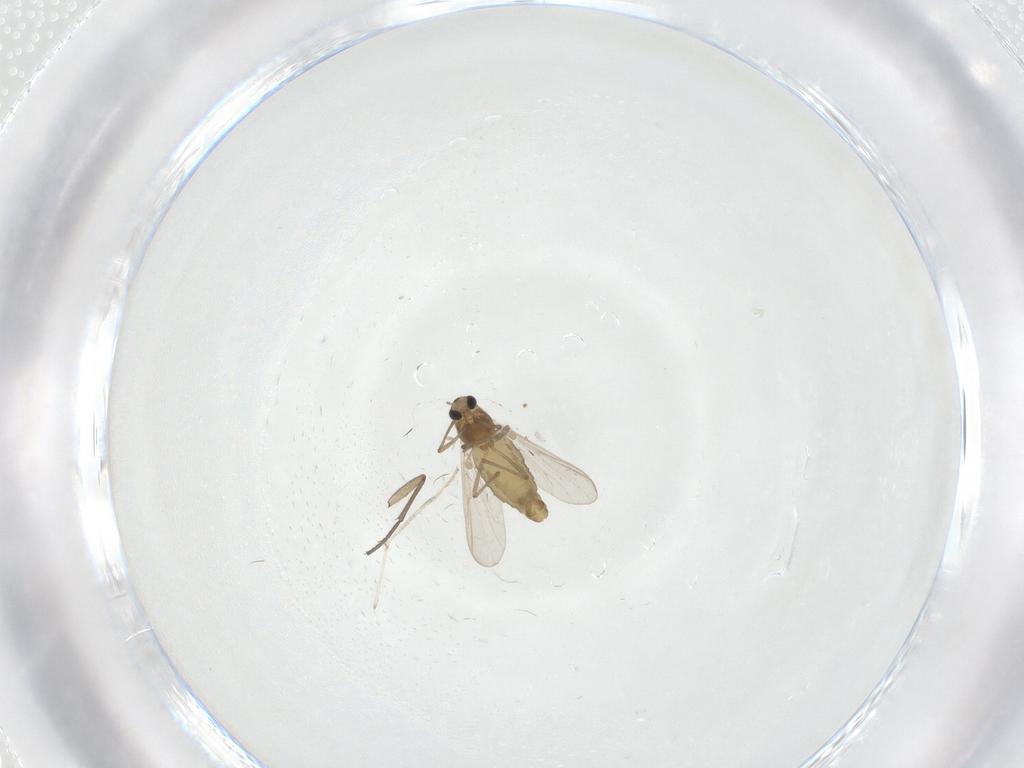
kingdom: Animalia
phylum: Arthropoda
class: Insecta
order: Diptera
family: Chironomidae
